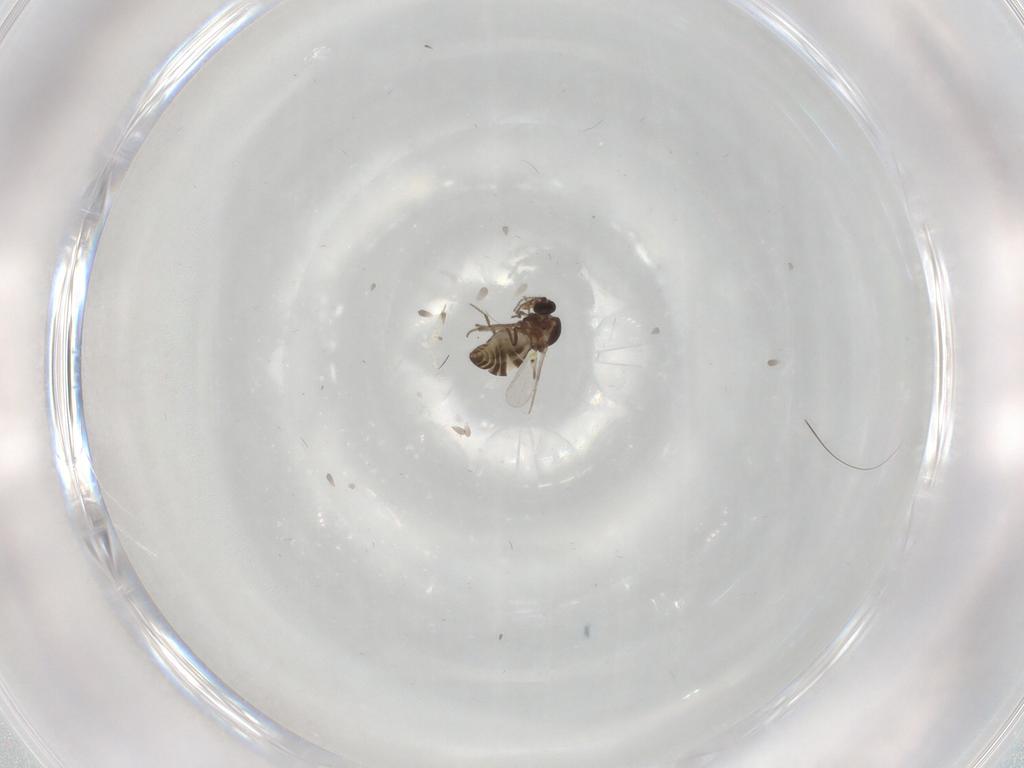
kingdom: Animalia
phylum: Arthropoda
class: Insecta
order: Diptera
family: Ceratopogonidae
